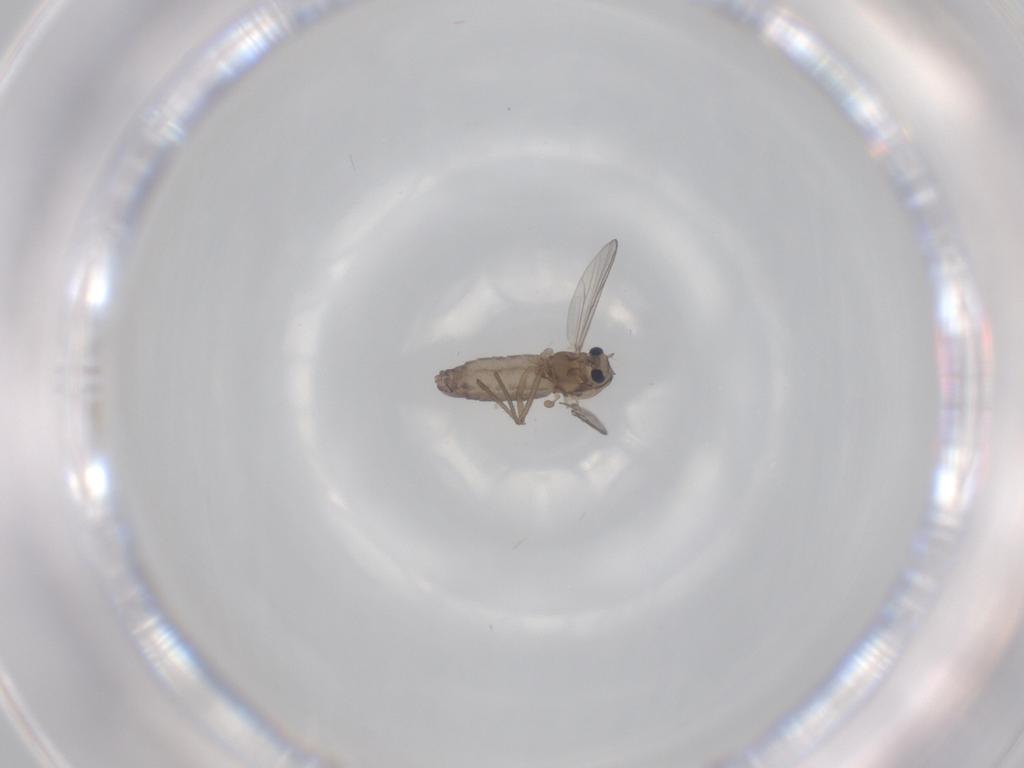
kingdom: Animalia
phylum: Arthropoda
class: Insecta
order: Diptera
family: Chironomidae
